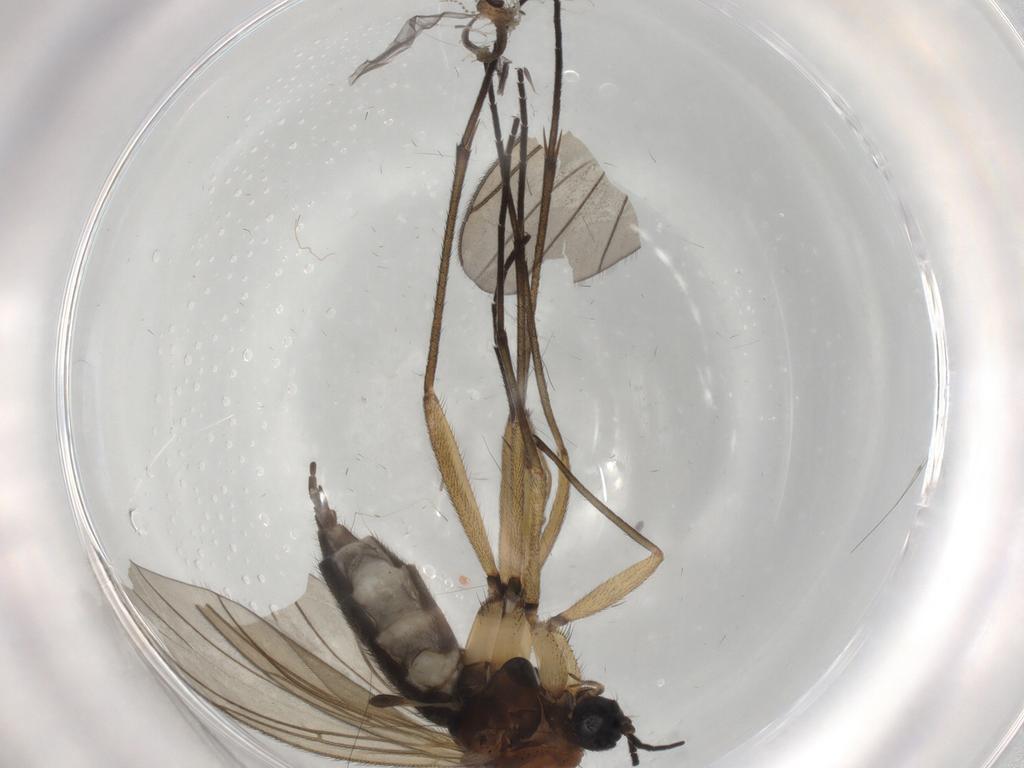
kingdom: Animalia
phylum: Arthropoda
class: Insecta
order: Diptera
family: Sciaridae
